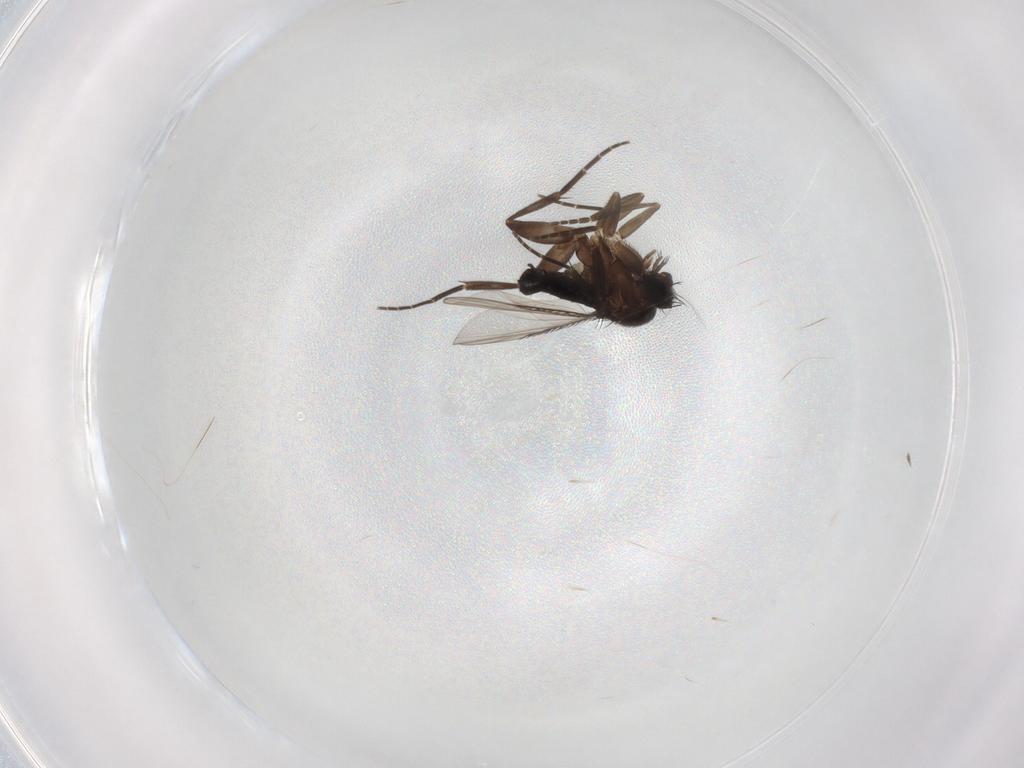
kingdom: Animalia
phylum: Arthropoda
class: Insecta
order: Diptera
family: Phoridae
